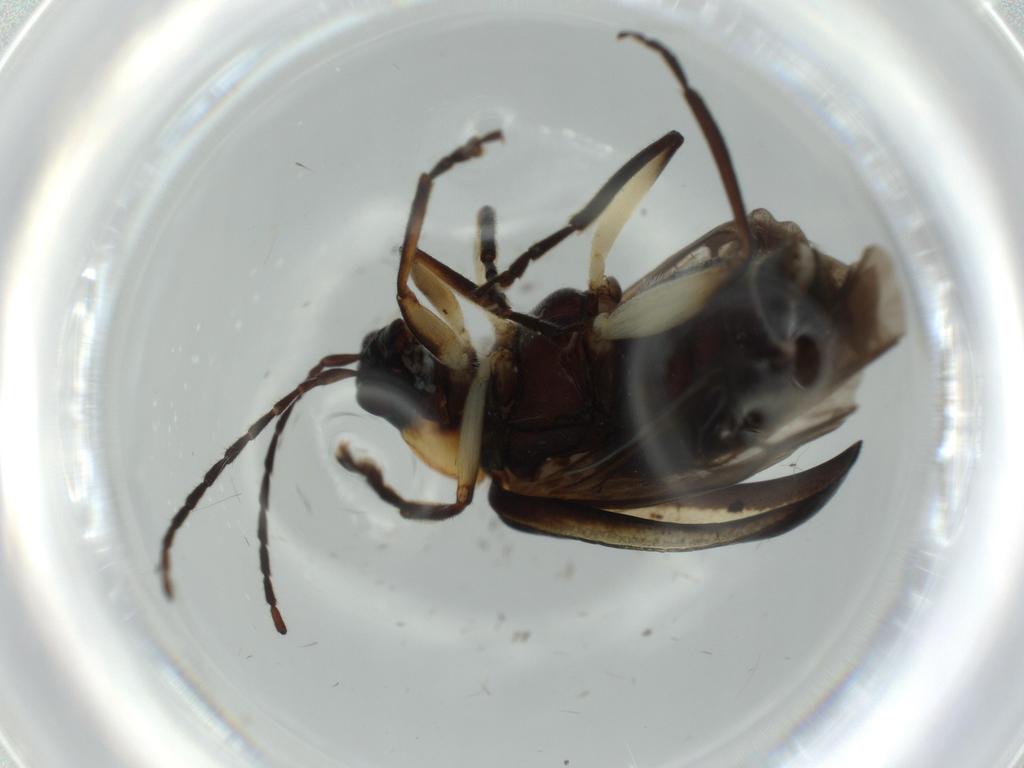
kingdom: Animalia
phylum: Arthropoda
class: Insecta
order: Coleoptera
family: Staphylinidae
